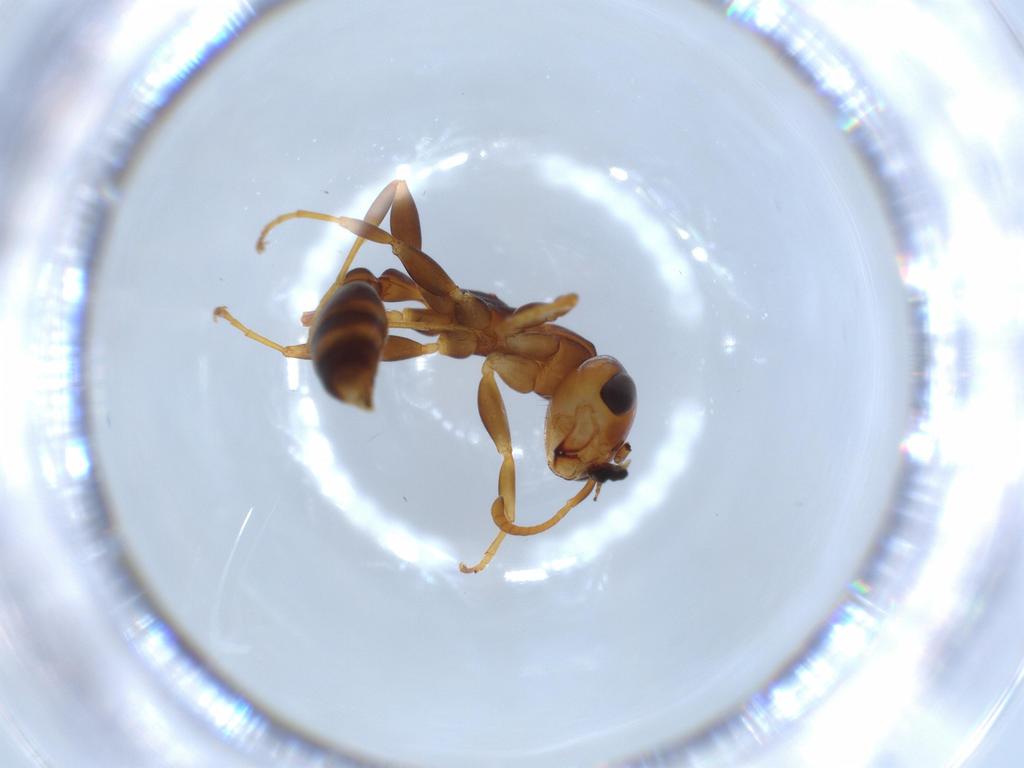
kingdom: Animalia
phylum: Arthropoda
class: Insecta
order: Hymenoptera
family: Formicidae
